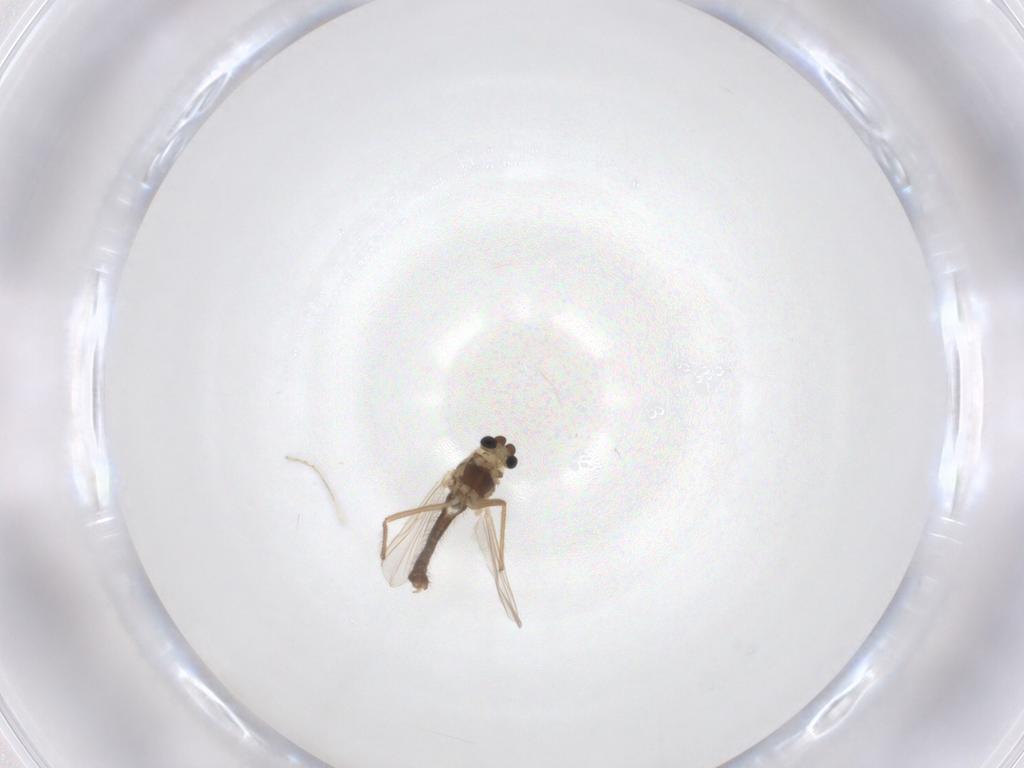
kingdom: Animalia
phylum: Arthropoda
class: Insecta
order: Diptera
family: Chironomidae
